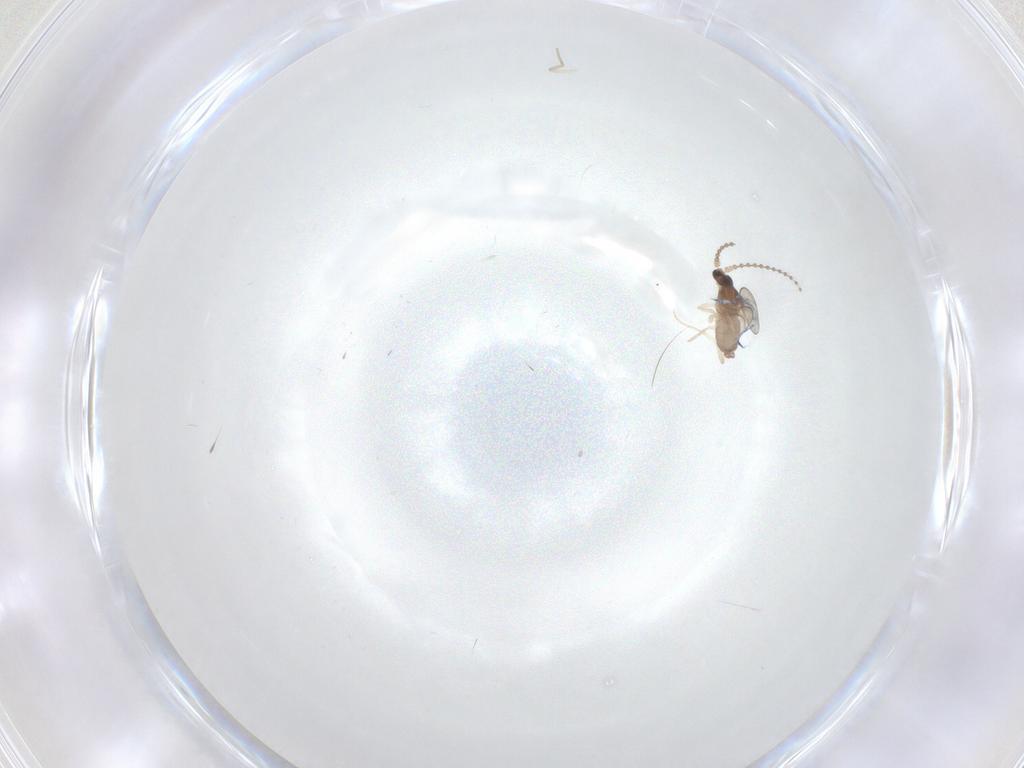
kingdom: Animalia
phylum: Arthropoda
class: Insecta
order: Diptera
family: Cecidomyiidae
